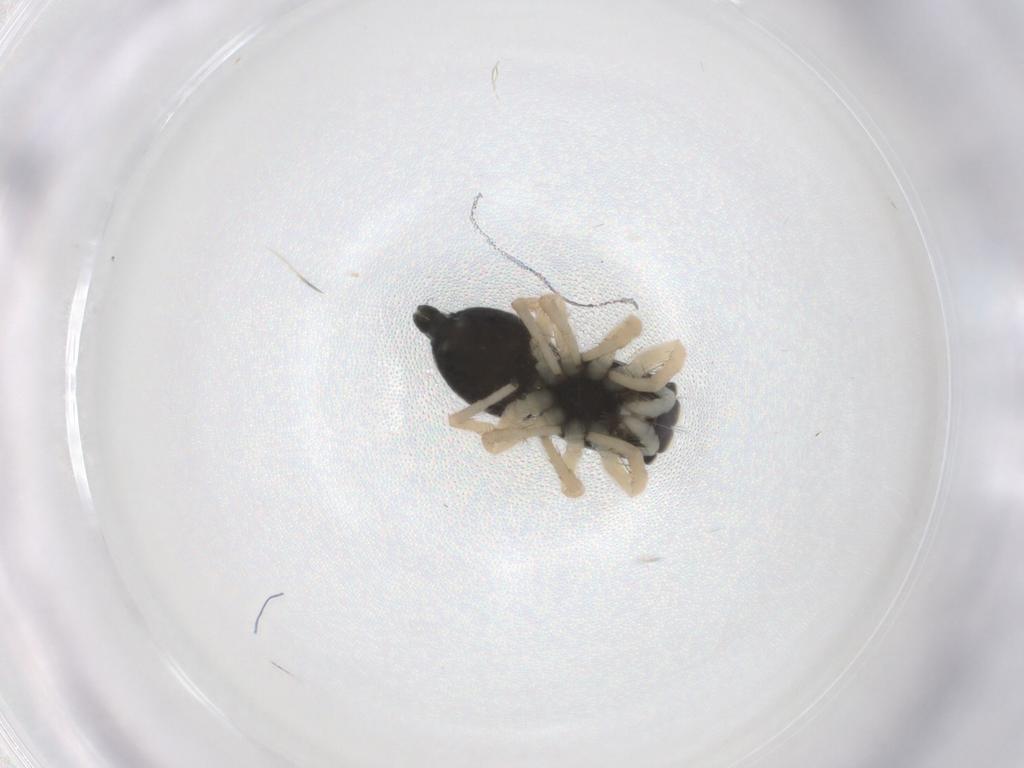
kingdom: Animalia
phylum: Arthropoda
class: Arachnida
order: Araneae
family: Salticidae
